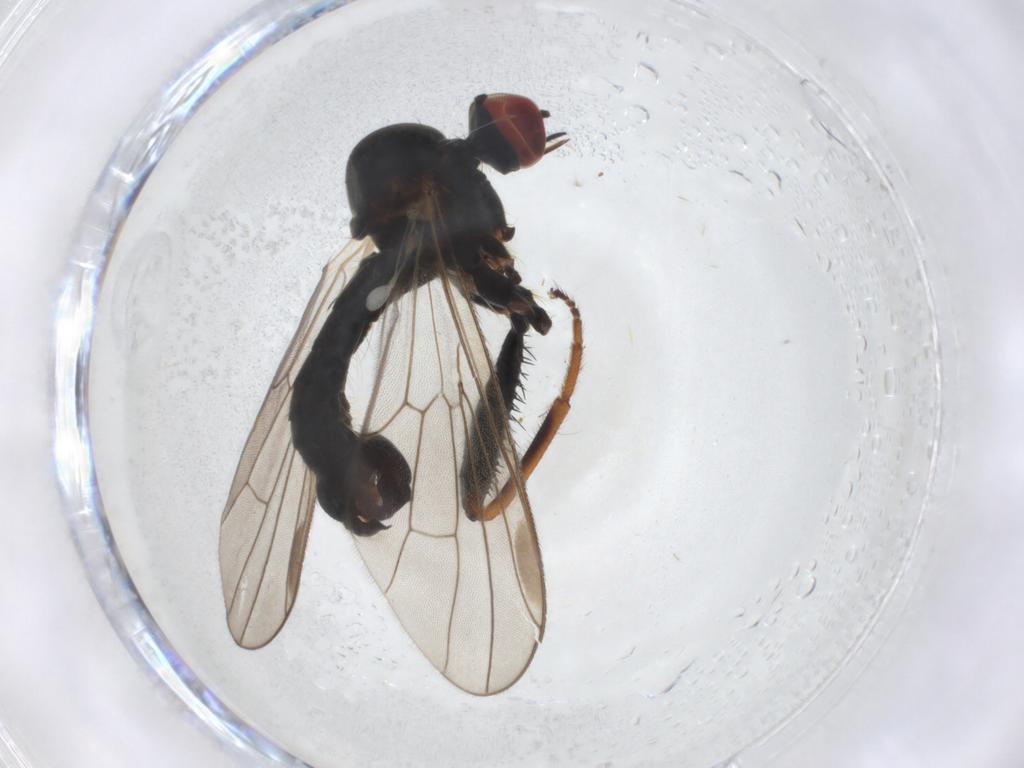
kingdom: Animalia
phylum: Arthropoda
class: Insecta
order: Diptera
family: Hybotidae
